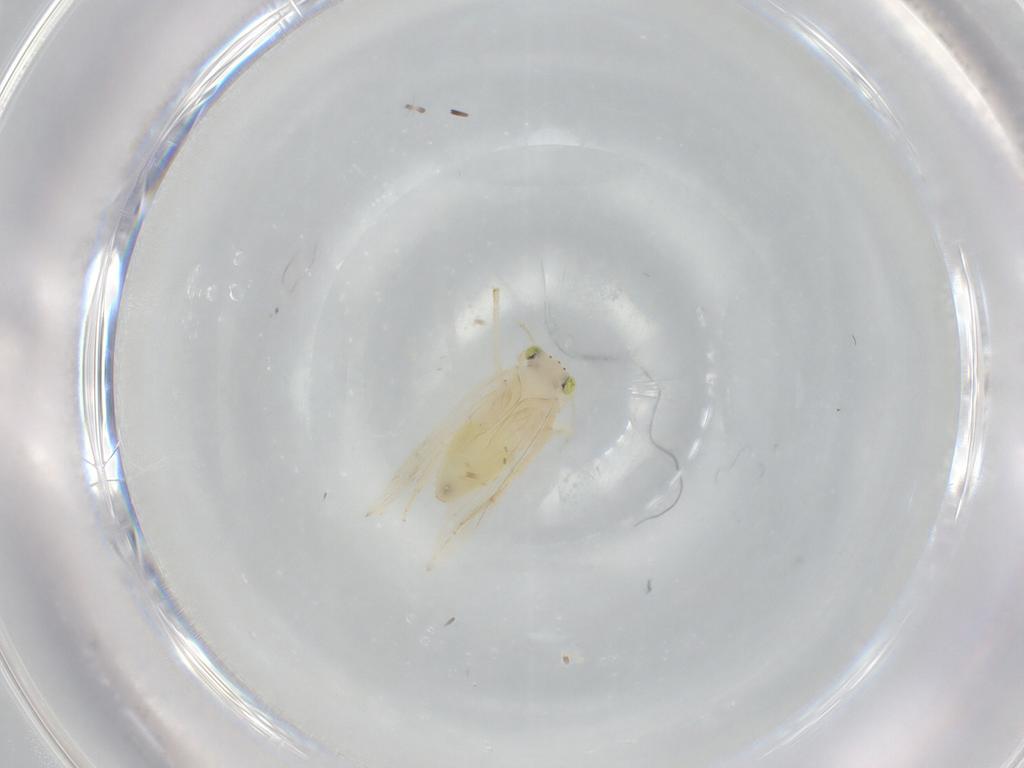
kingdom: Animalia
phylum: Arthropoda
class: Insecta
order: Psocodea
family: Lepidopsocidae
